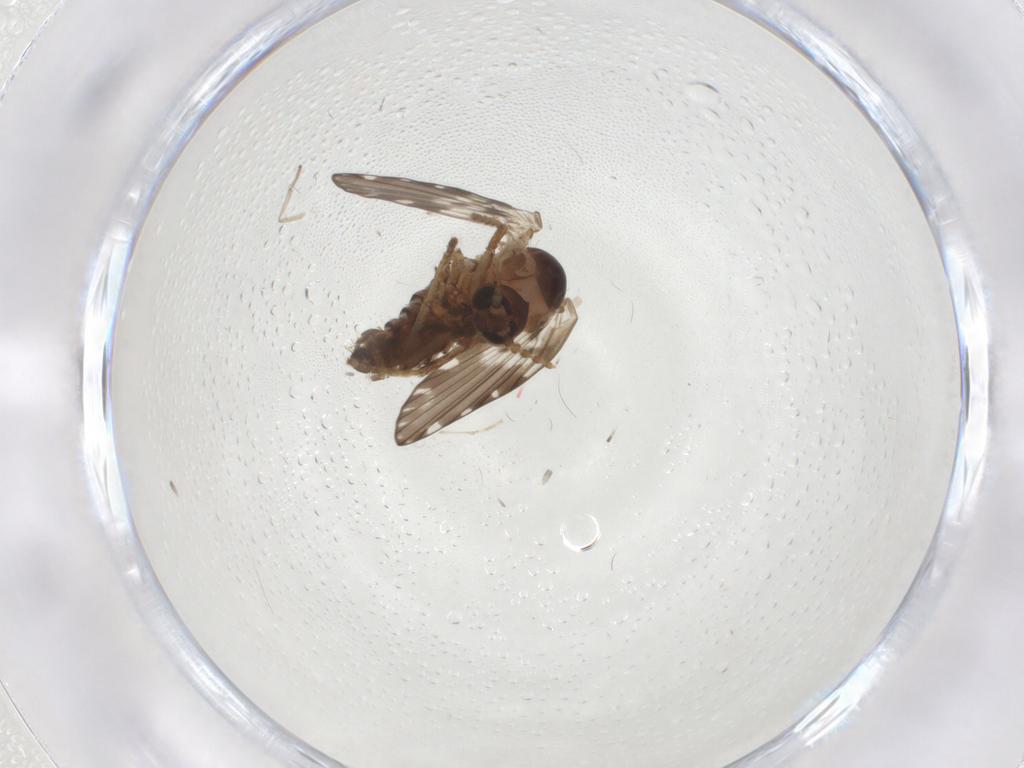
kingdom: Animalia
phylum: Arthropoda
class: Insecta
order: Diptera
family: Psychodidae
